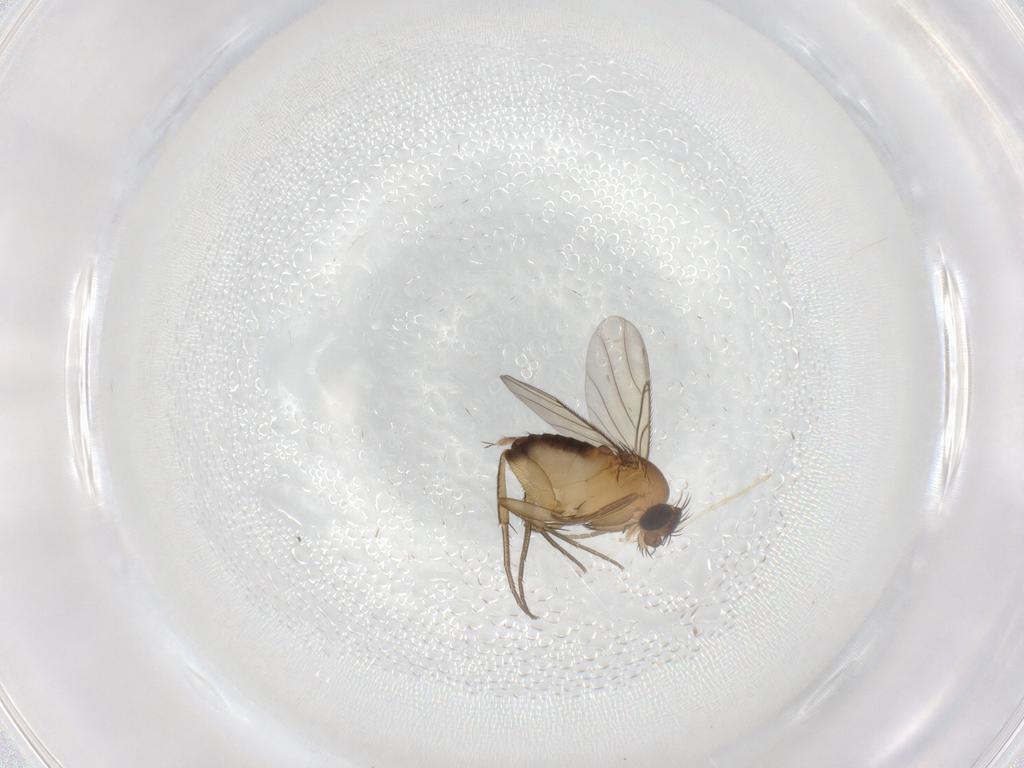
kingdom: Animalia
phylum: Arthropoda
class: Insecta
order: Diptera
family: Phoridae
